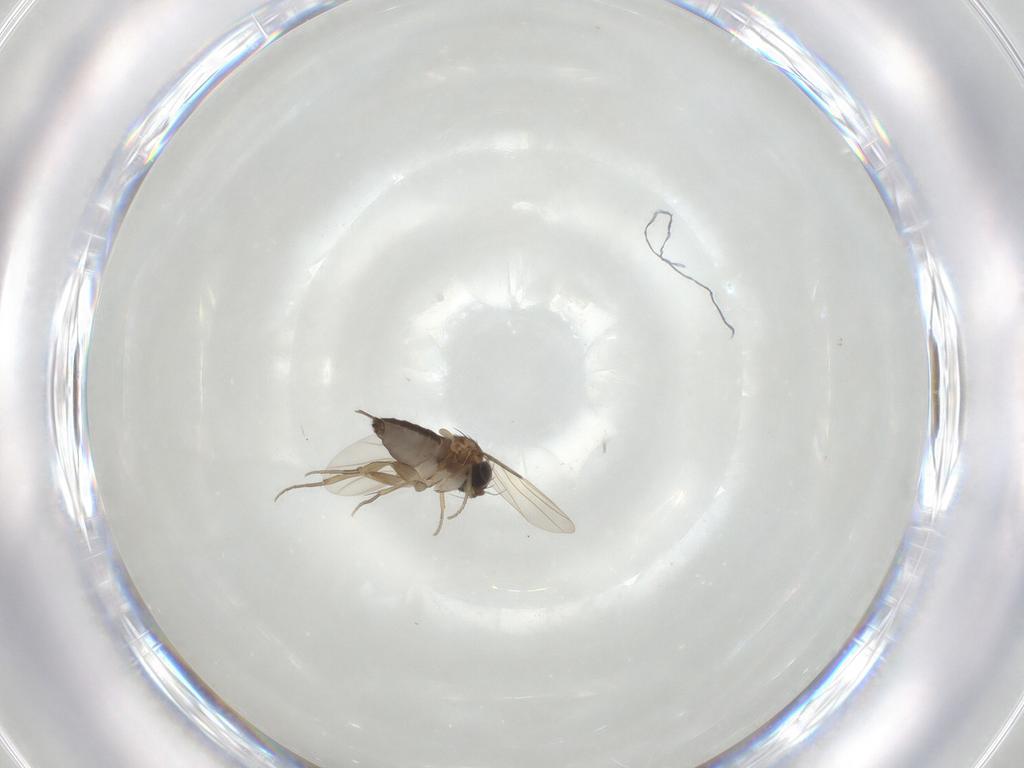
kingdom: Animalia
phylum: Arthropoda
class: Insecta
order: Diptera
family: Phoridae
